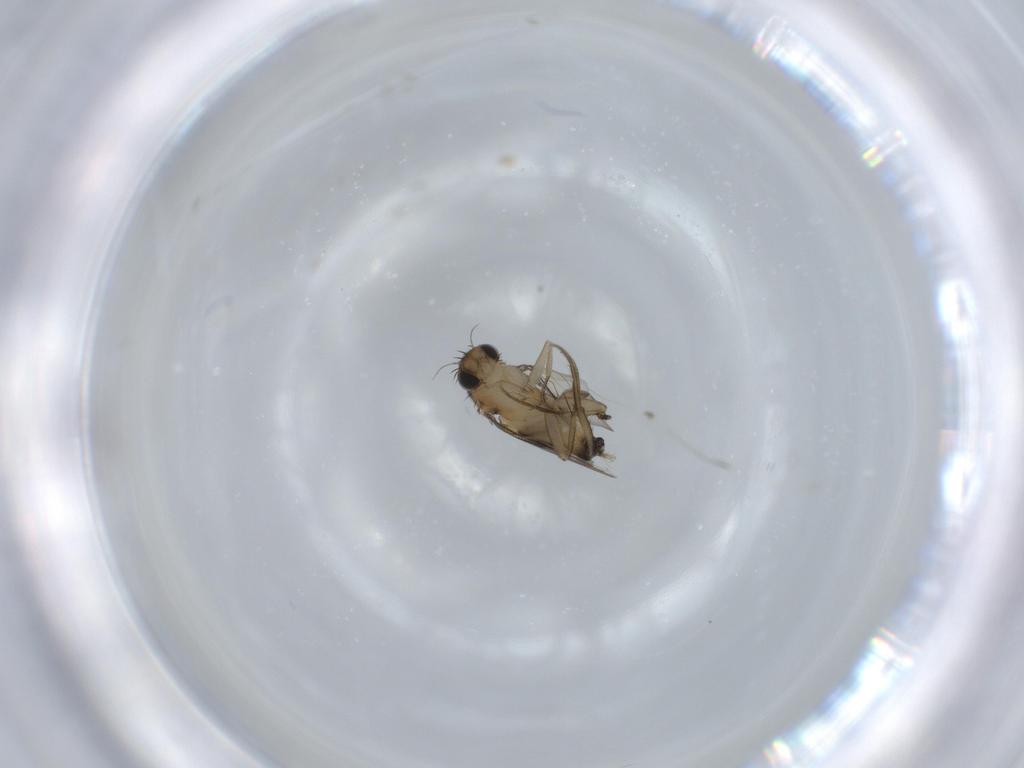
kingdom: Animalia
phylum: Arthropoda
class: Insecta
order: Diptera
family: Phoridae
